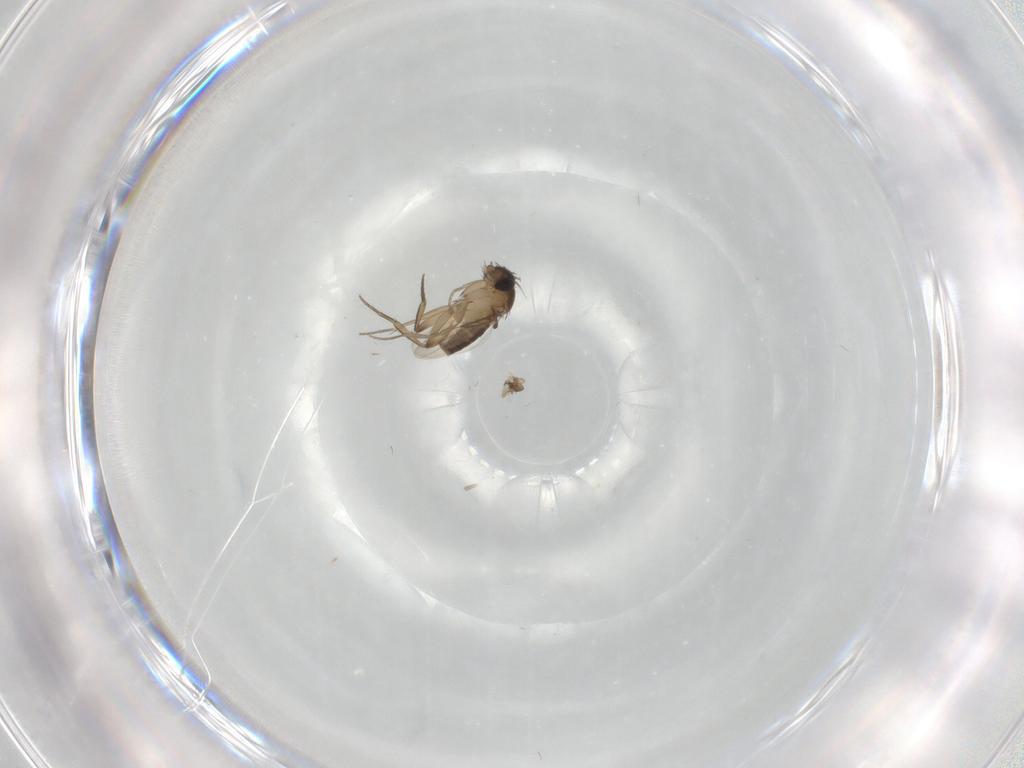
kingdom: Animalia
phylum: Arthropoda
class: Insecta
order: Diptera
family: Phoridae
